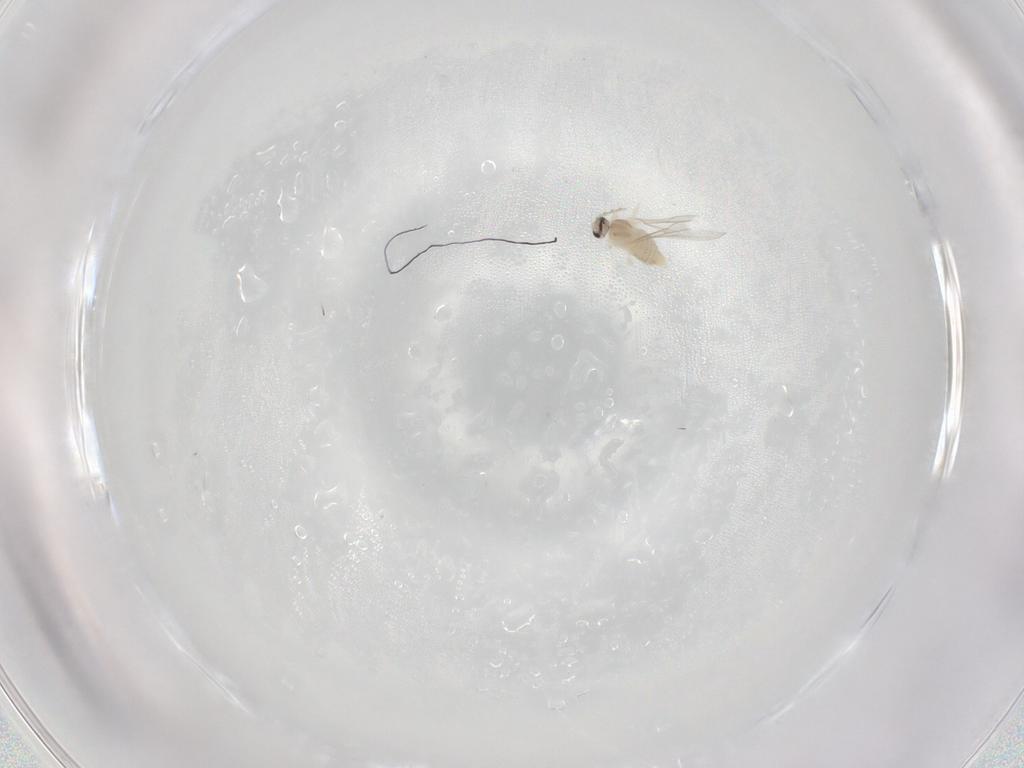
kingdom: Animalia
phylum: Arthropoda
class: Insecta
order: Diptera
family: Cecidomyiidae
